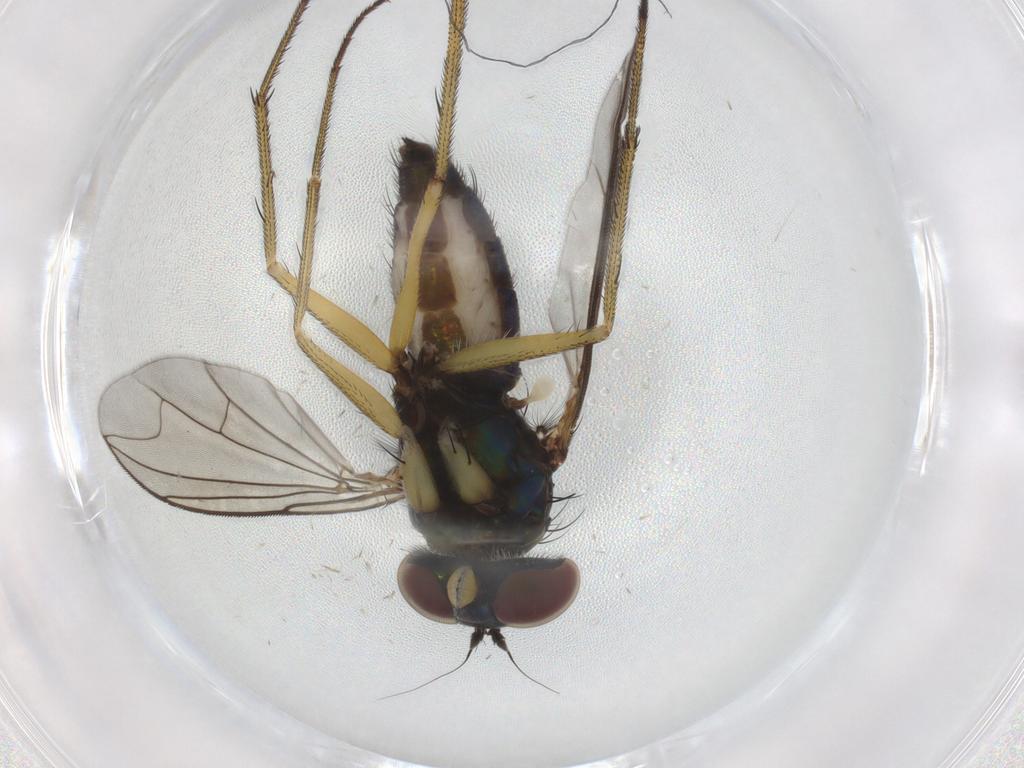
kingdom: Animalia
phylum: Arthropoda
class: Insecta
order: Diptera
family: Dolichopodidae
